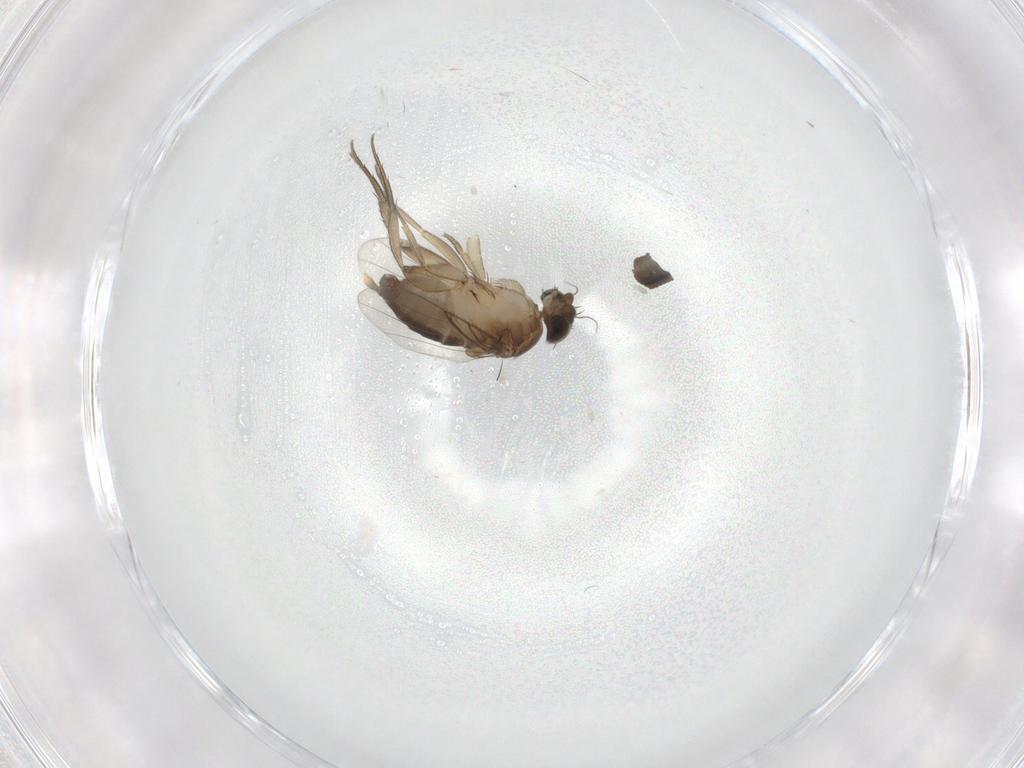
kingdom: Animalia
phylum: Arthropoda
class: Insecta
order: Diptera
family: Phoridae
